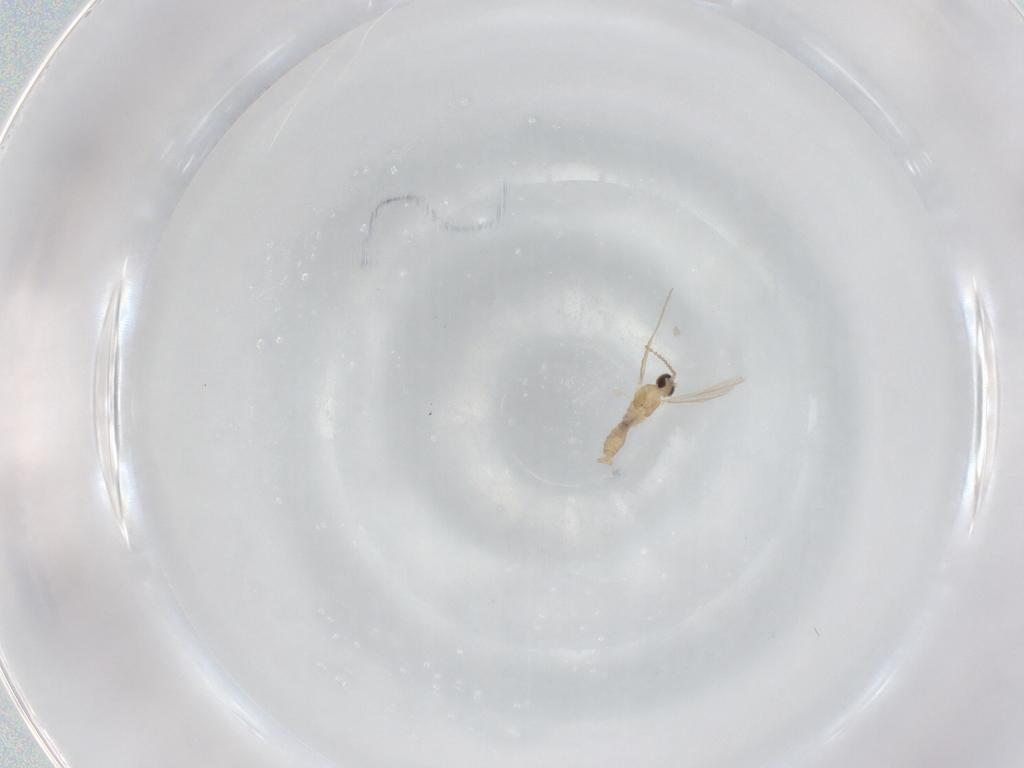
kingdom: Animalia
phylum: Arthropoda
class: Insecta
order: Diptera
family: Cecidomyiidae
